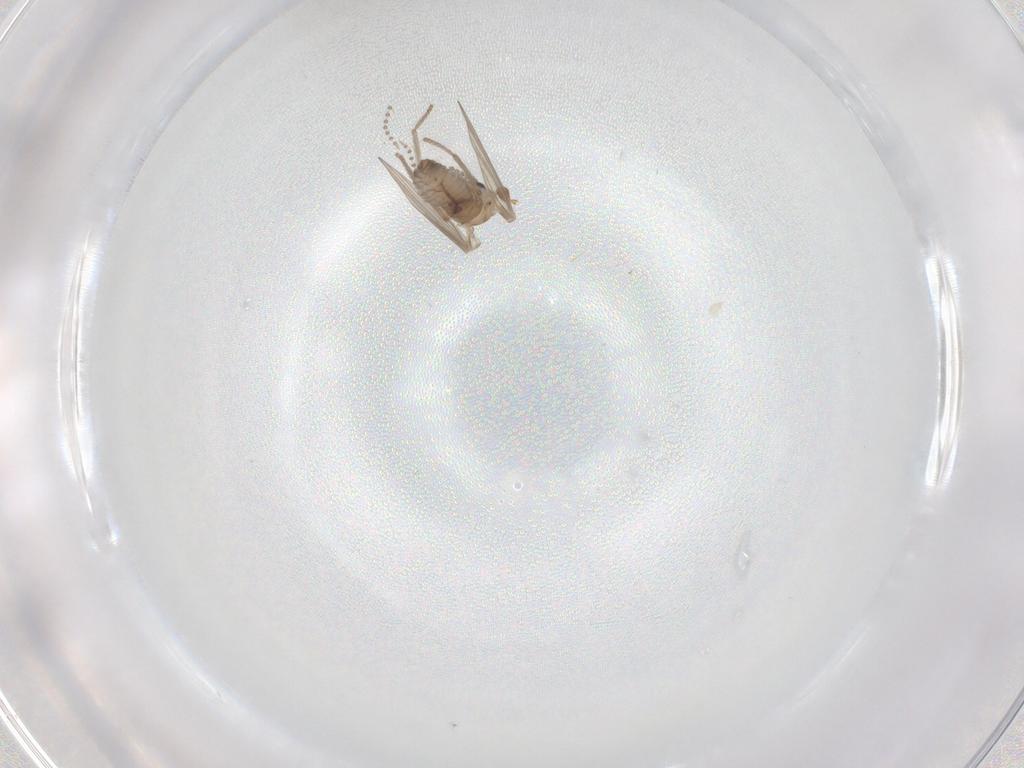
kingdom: Animalia
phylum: Arthropoda
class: Insecta
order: Diptera
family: Psychodidae
